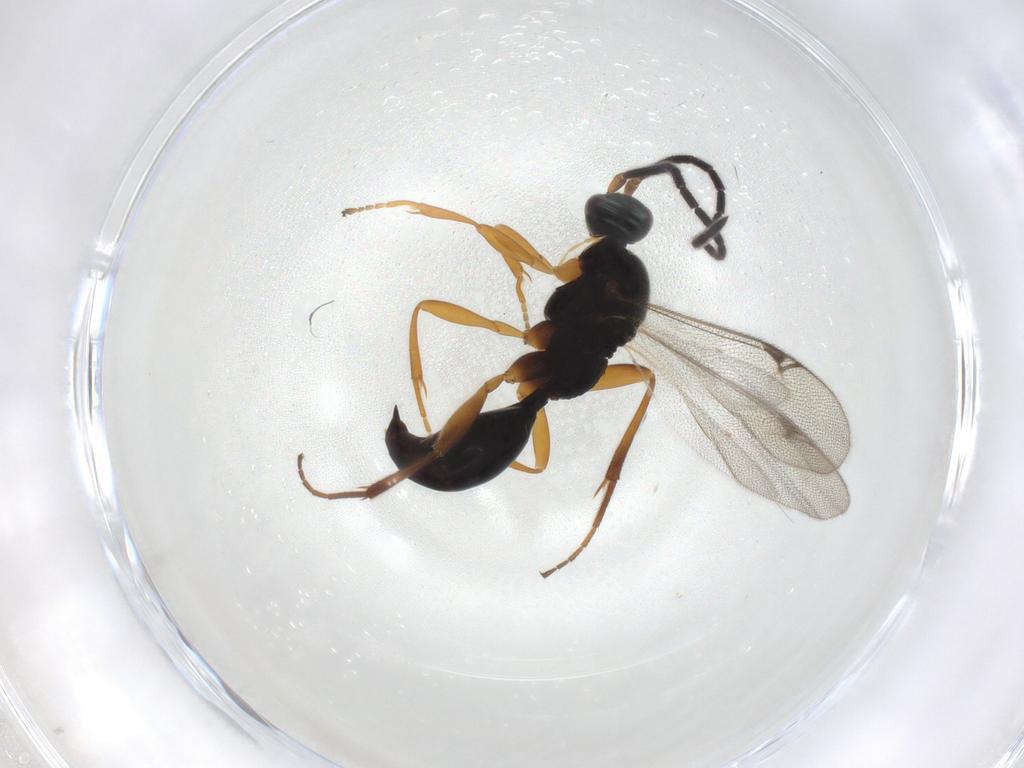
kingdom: Animalia
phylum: Arthropoda
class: Insecta
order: Hymenoptera
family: Proctotrupidae
